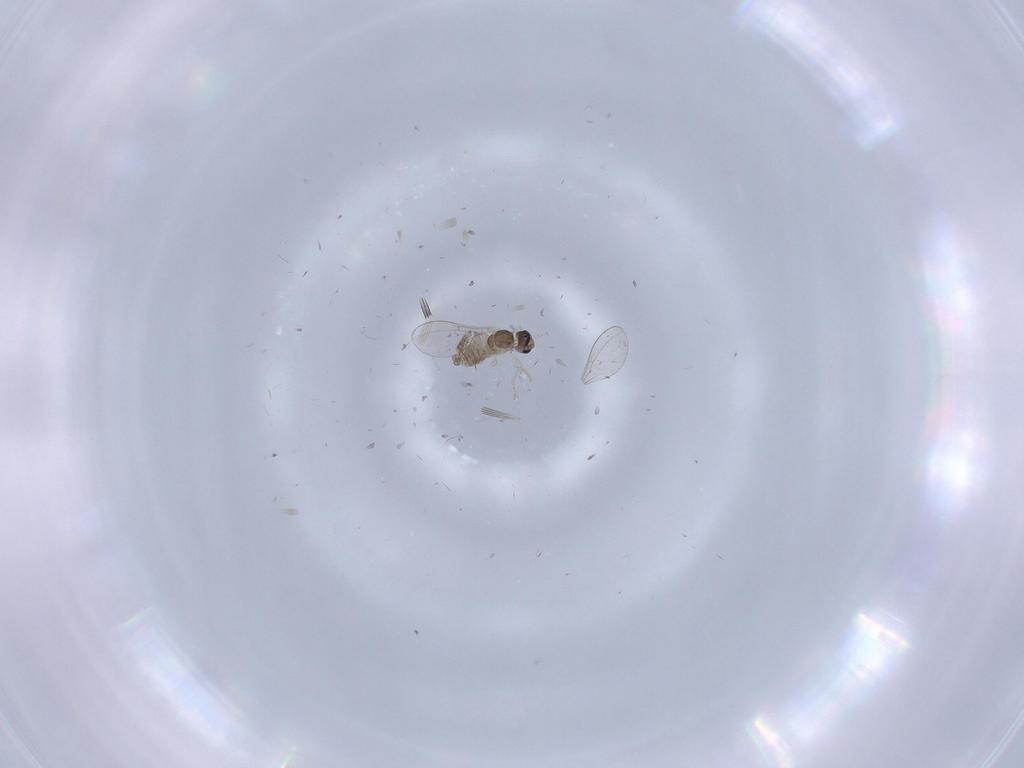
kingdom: Animalia
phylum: Arthropoda
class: Insecta
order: Diptera
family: Cecidomyiidae
